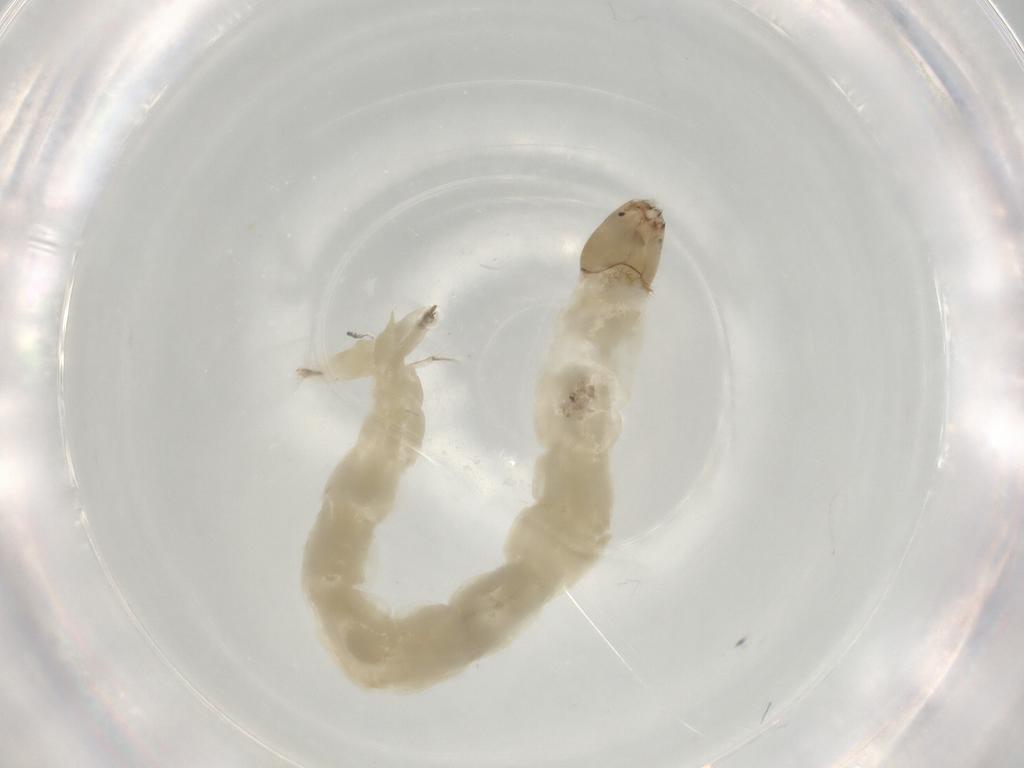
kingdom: Animalia
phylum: Arthropoda
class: Insecta
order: Diptera
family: Chironomidae
